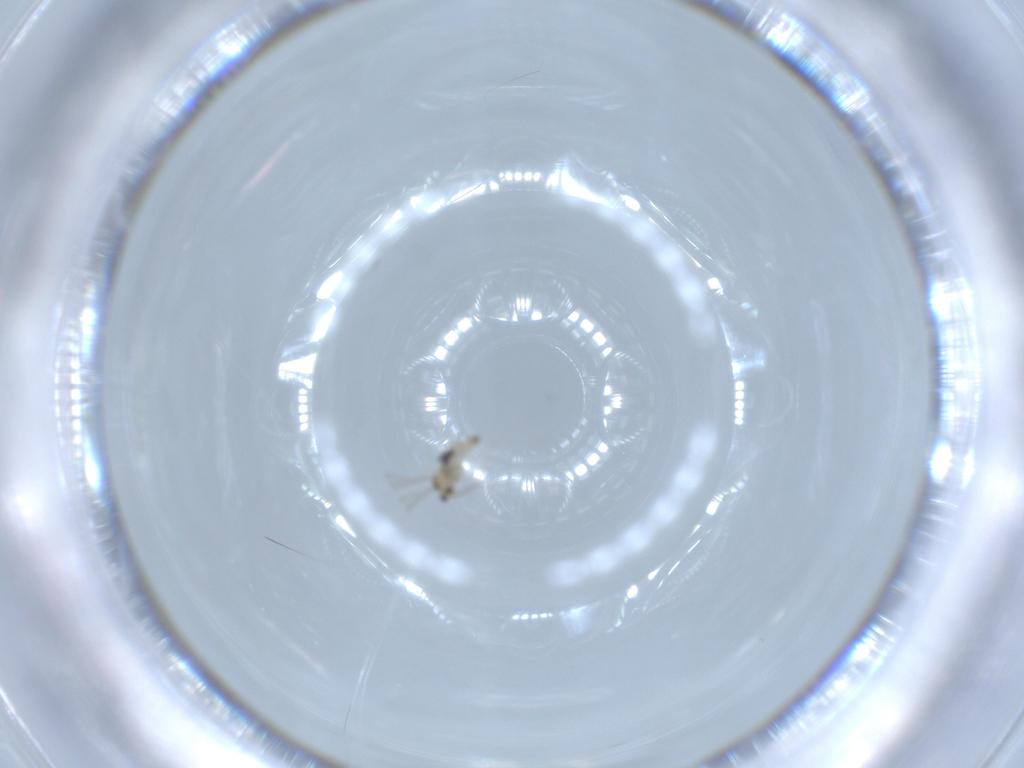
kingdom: Animalia
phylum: Arthropoda
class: Insecta
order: Diptera
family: Cecidomyiidae
